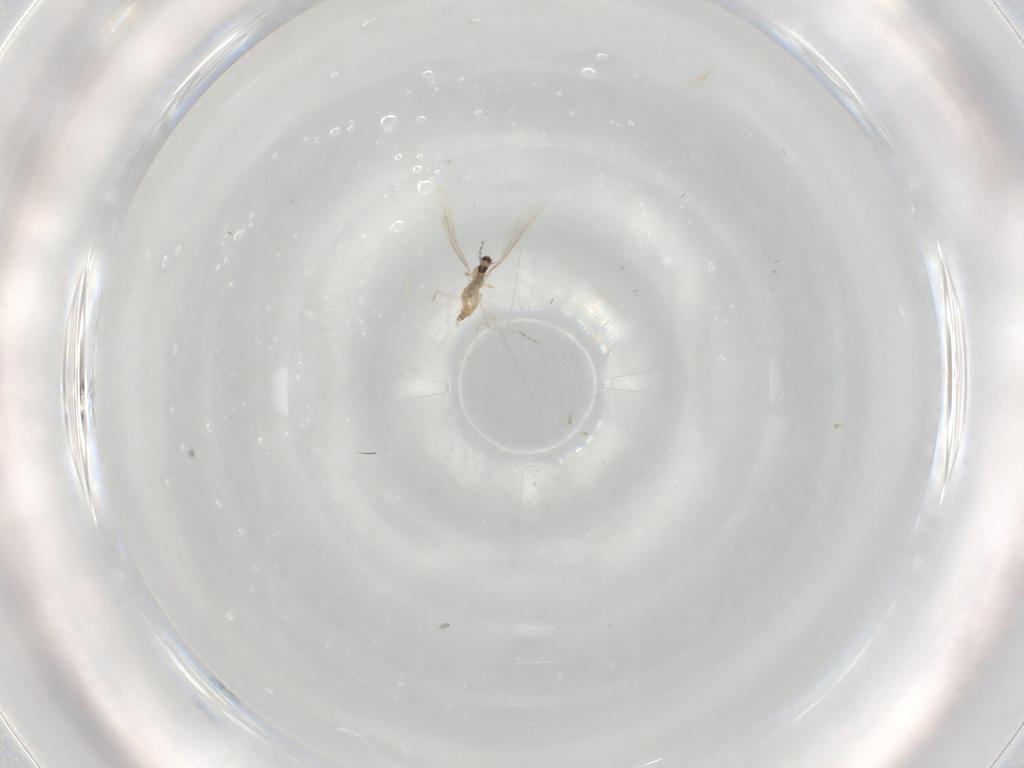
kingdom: Animalia
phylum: Arthropoda
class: Insecta
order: Diptera
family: Cecidomyiidae
